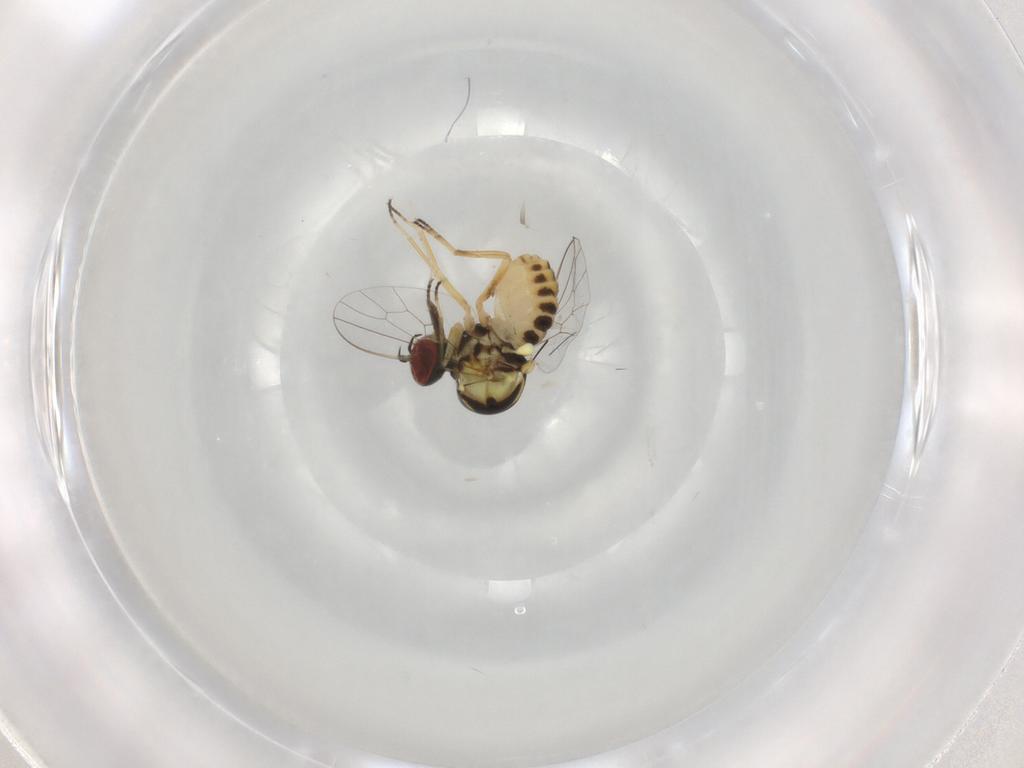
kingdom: Animalia
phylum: Arthropoda
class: Insecta
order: Diptera
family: Bombyliidae
